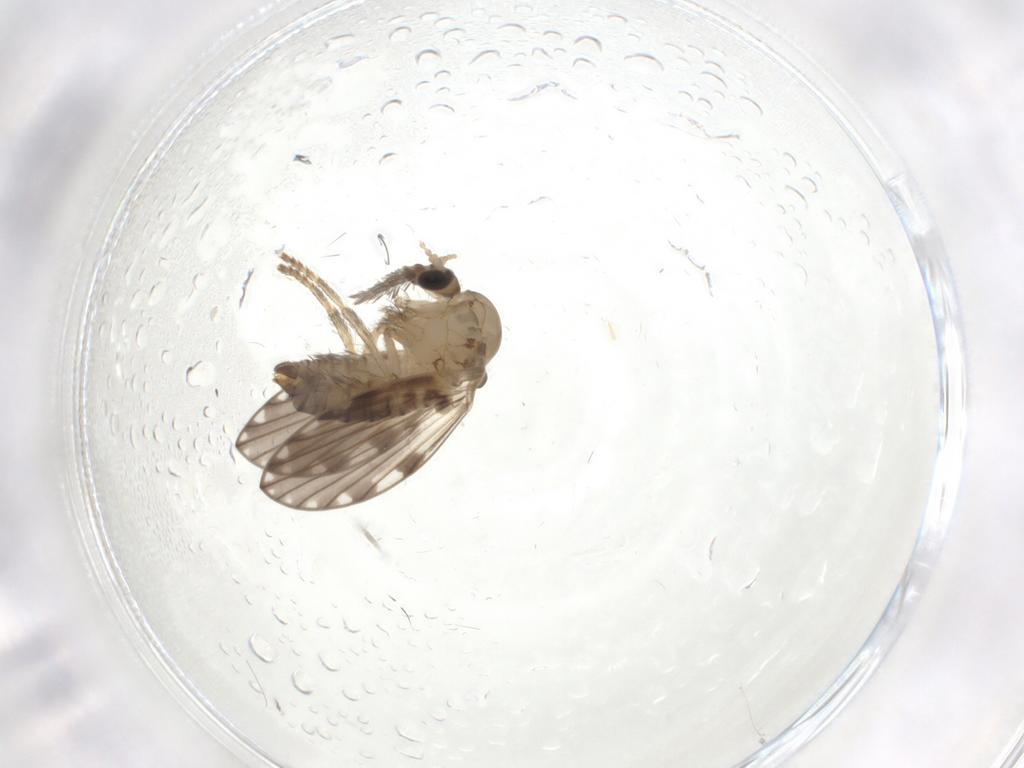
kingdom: Animalia
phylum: Arthropoda
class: Insecta
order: Diptera
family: Psychodidae
